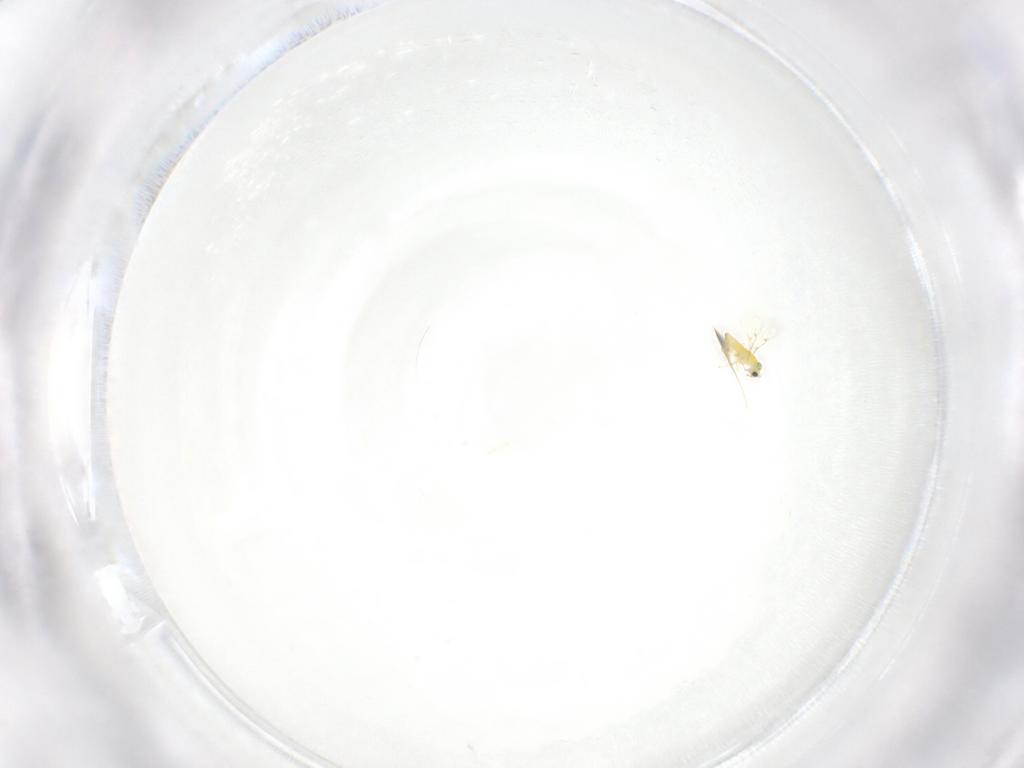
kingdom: Animalia
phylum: Arthropoda
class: Insecta
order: Hymenoptera
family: Trichogrammatidae
